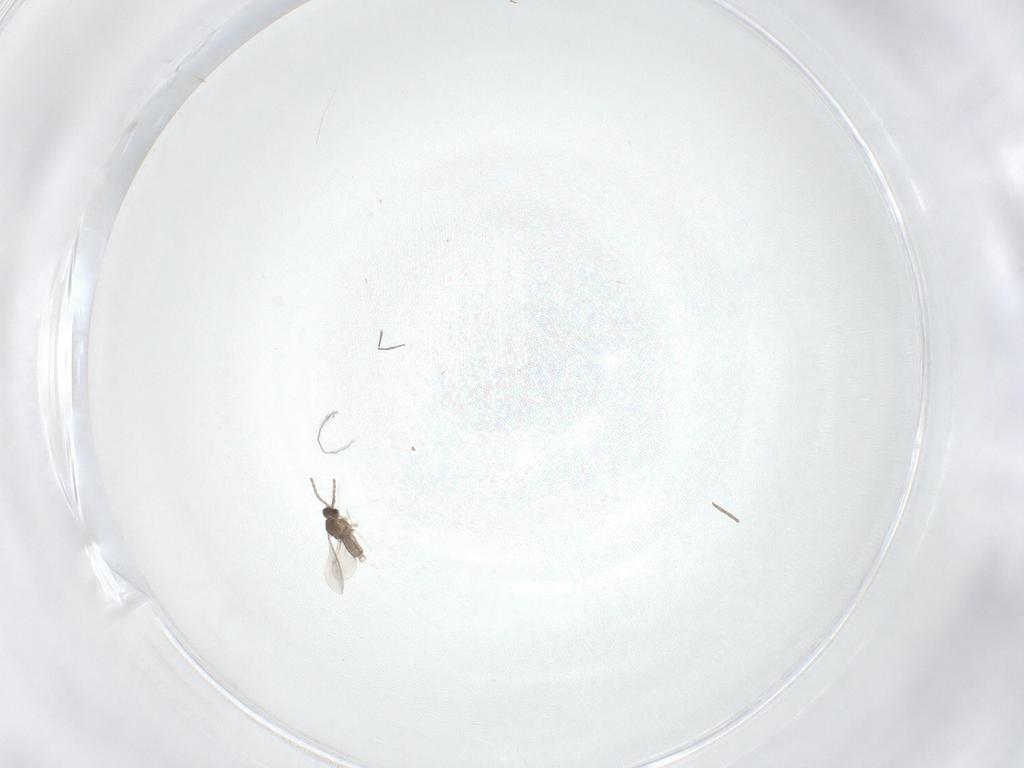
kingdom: Animalia
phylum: Arthropoda
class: Insecta
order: Diptera
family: Cecidomyiidae
